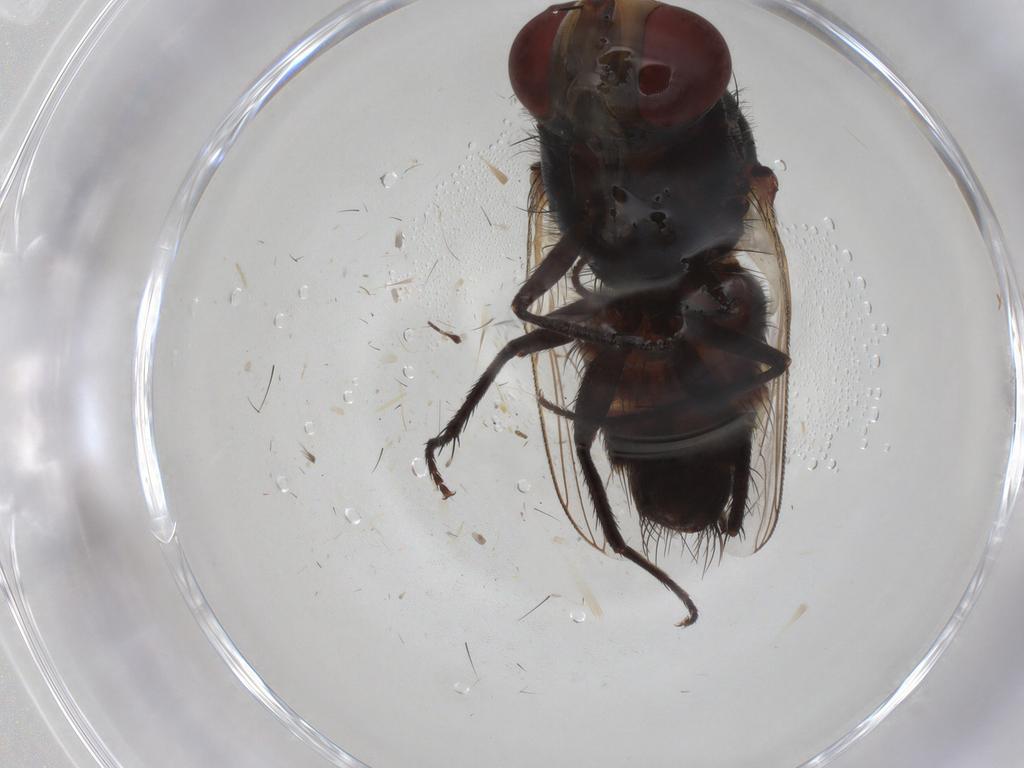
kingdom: Animalia
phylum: Arthropoda
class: Insecta
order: Diptera
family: Sarcophagidae
